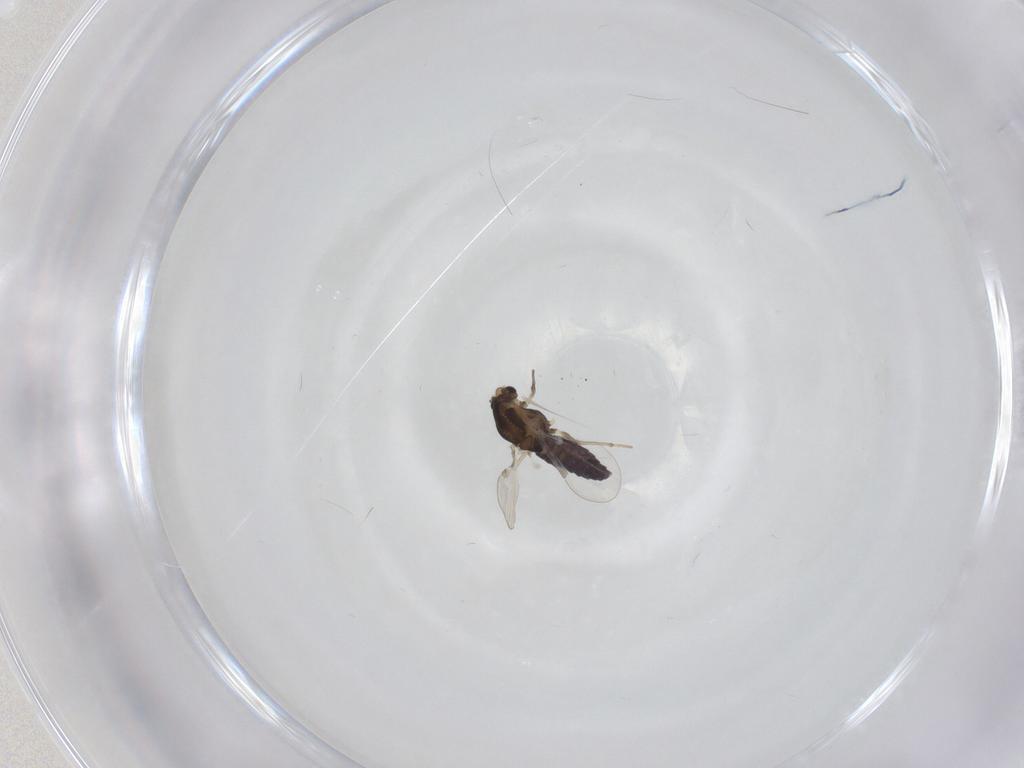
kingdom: Animalia
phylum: Arthropoda
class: Insecta
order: Diptera
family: Chironomidae
